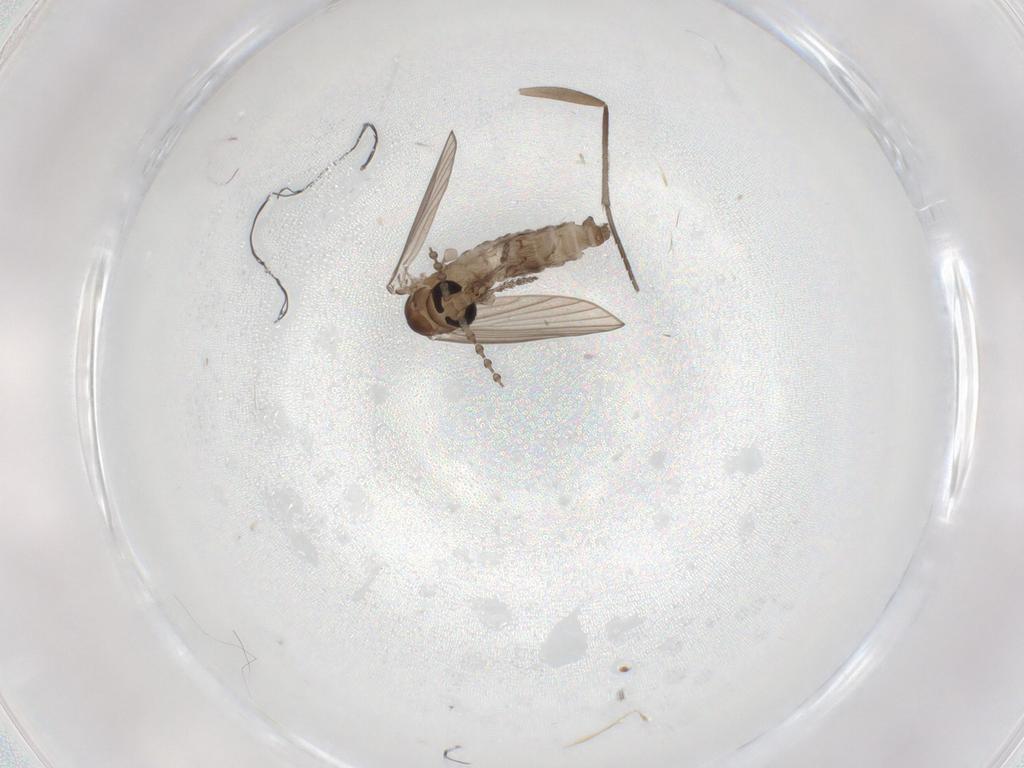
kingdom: Animalia
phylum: Arthropoda
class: Insecta
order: Diptera
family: Sciaridae
